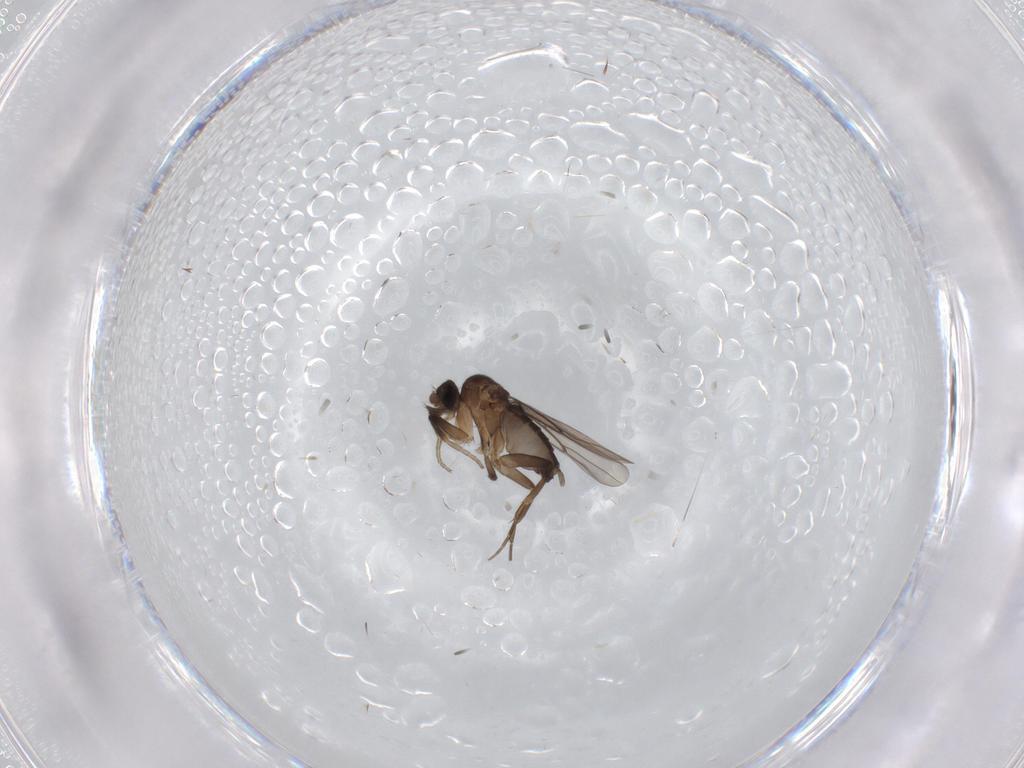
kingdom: Animalia
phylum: Arthropoda
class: Insecta
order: Diptera
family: Phoridae
